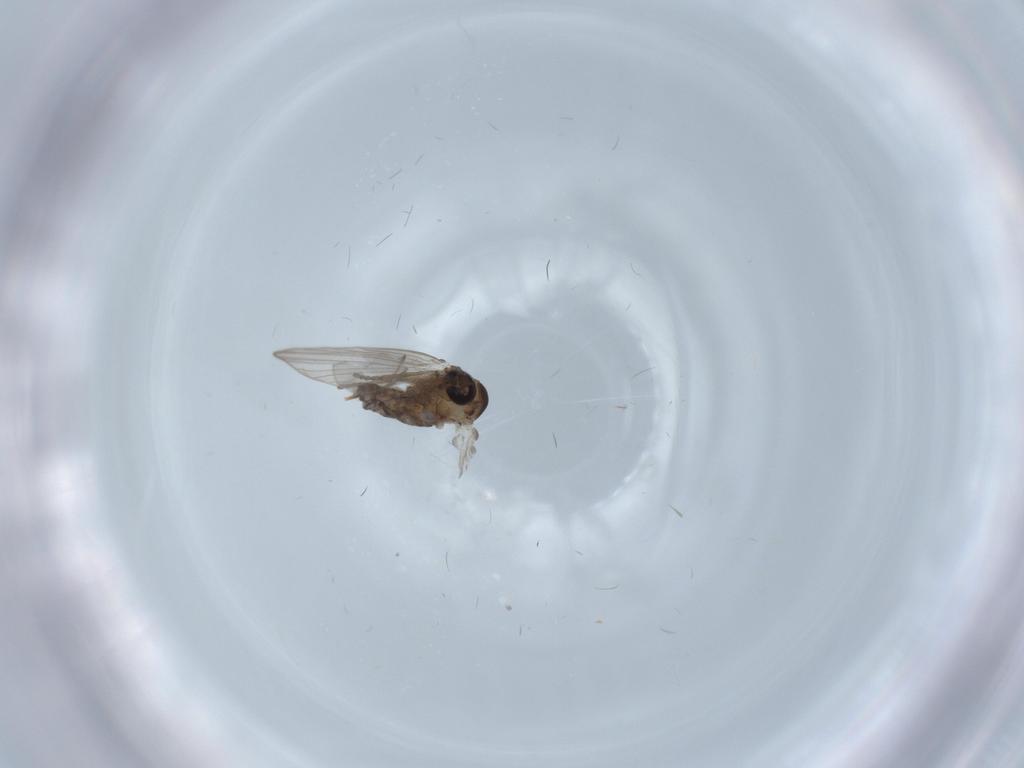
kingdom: Animalia
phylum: Arthropoda
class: Insecta
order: Diptera
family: Psychodidae
